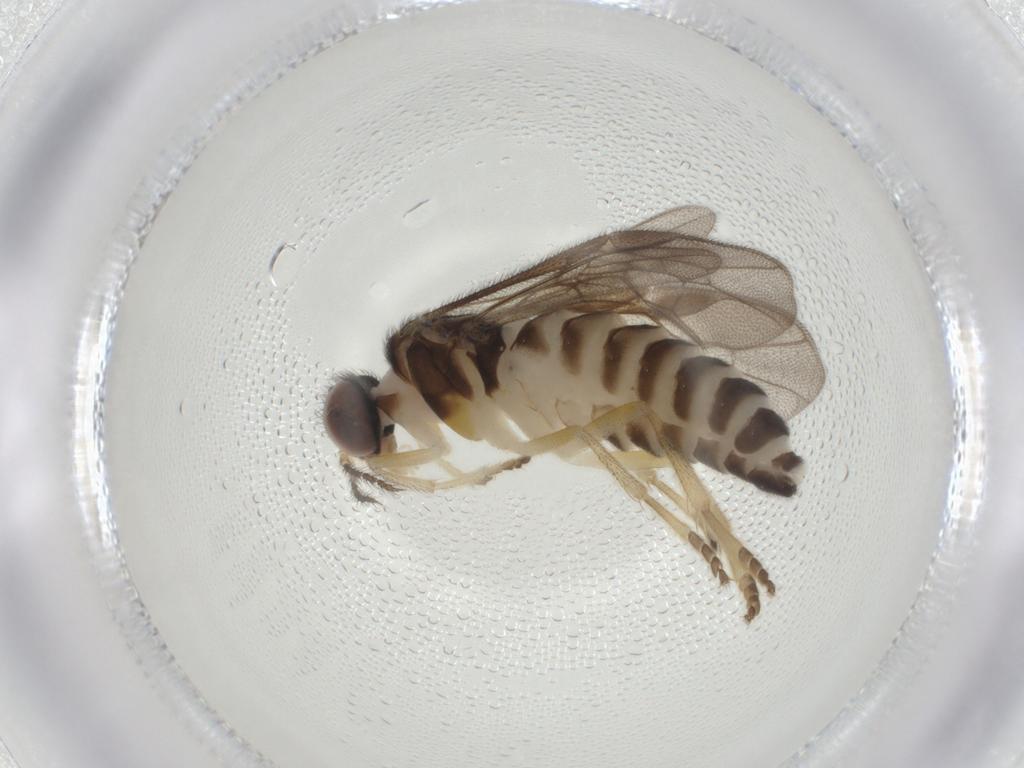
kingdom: Animalia
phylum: Arthropoda
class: Insecta
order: Hymenoptera
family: Pergidae
